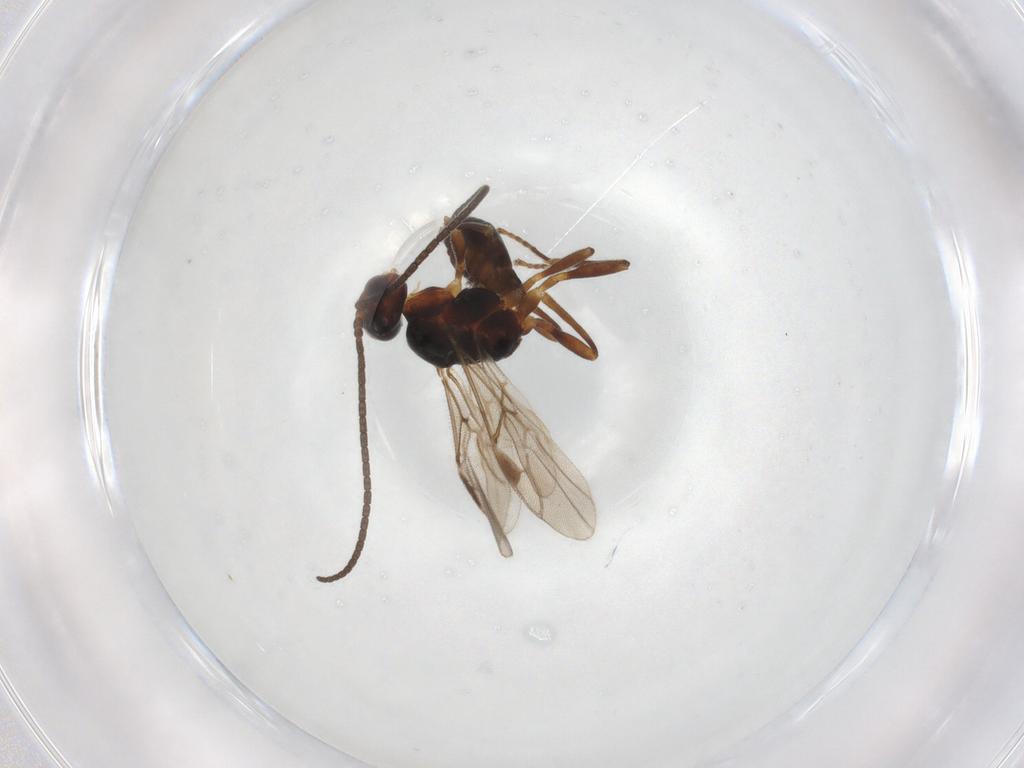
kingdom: Animalia
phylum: Arthropoda
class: Insecta
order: Hymenoptera
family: Braconidae
